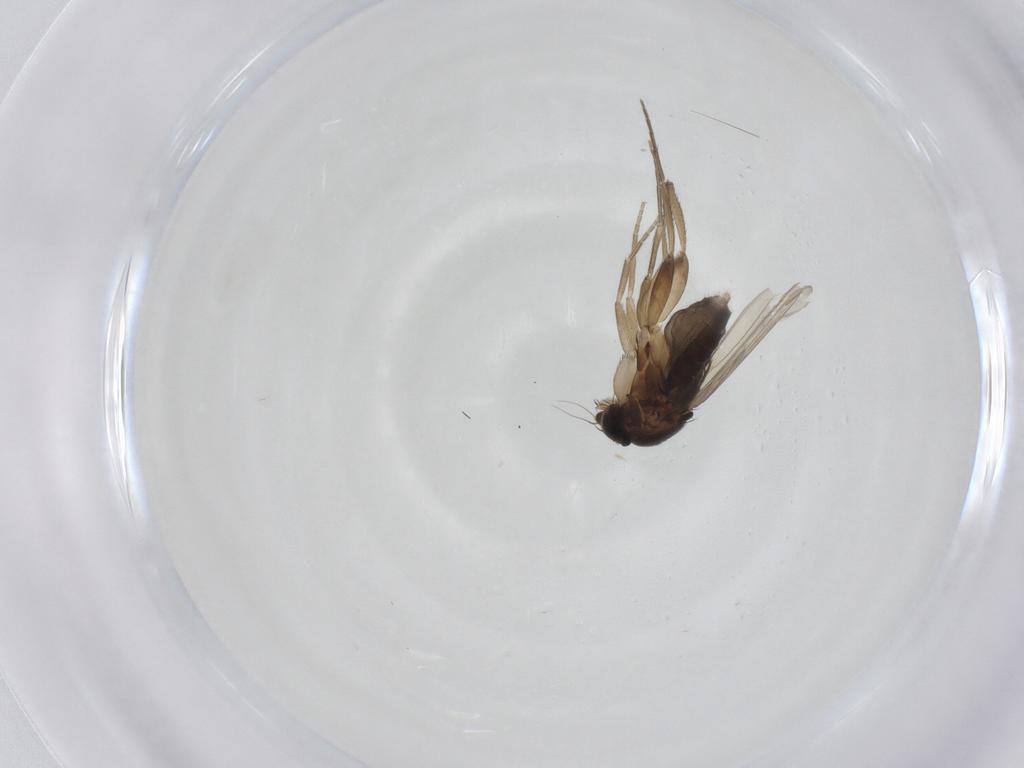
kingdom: Animalia
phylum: Arthropoda
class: Insecta
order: Diptera
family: Phoridae
